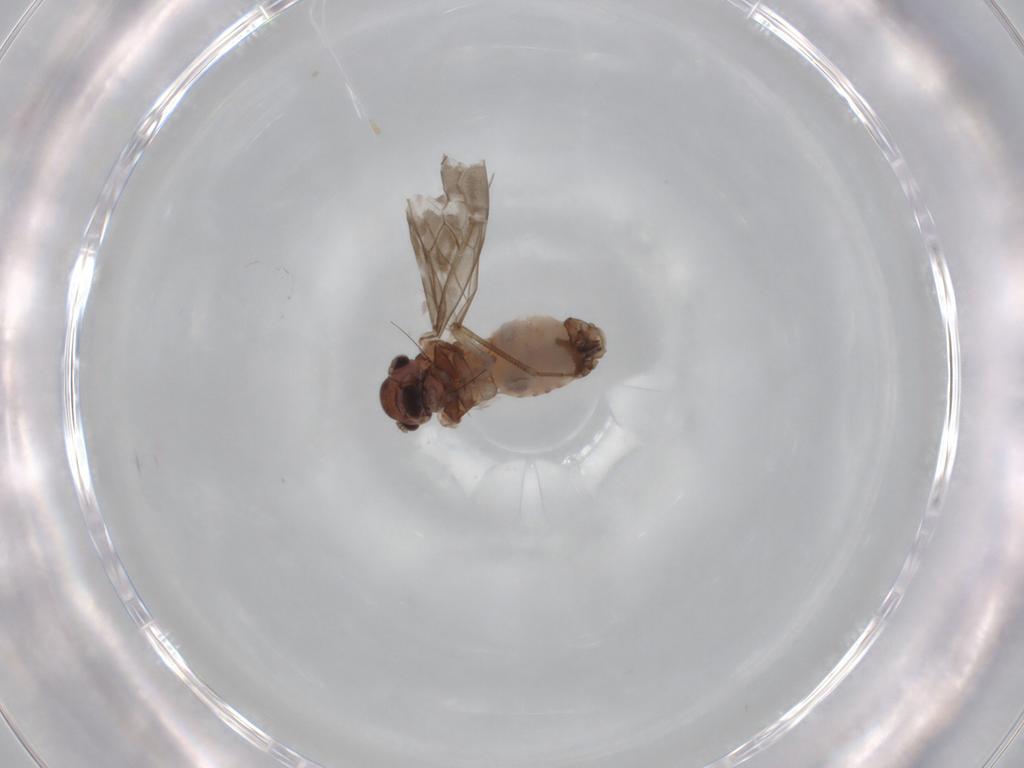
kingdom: Animalia
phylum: Arthropoda
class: Insecta
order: Psocodea
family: Peripsocidae
